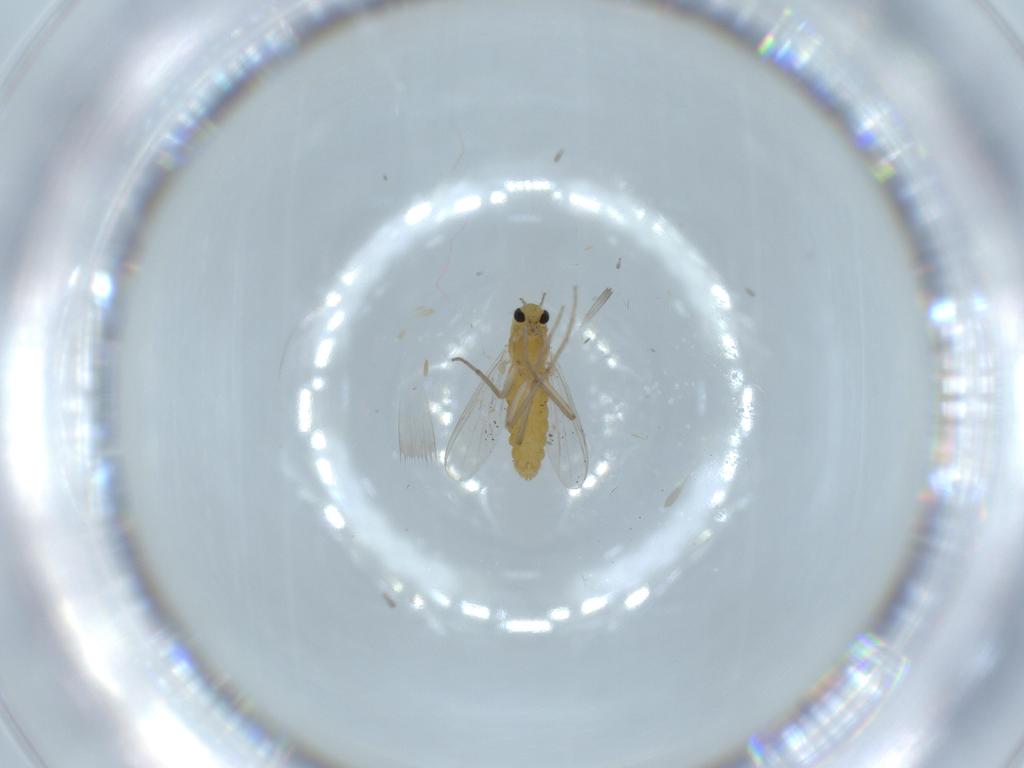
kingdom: Animalia
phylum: Arthropoda
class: Insecta
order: Diptera
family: Chironomidae
